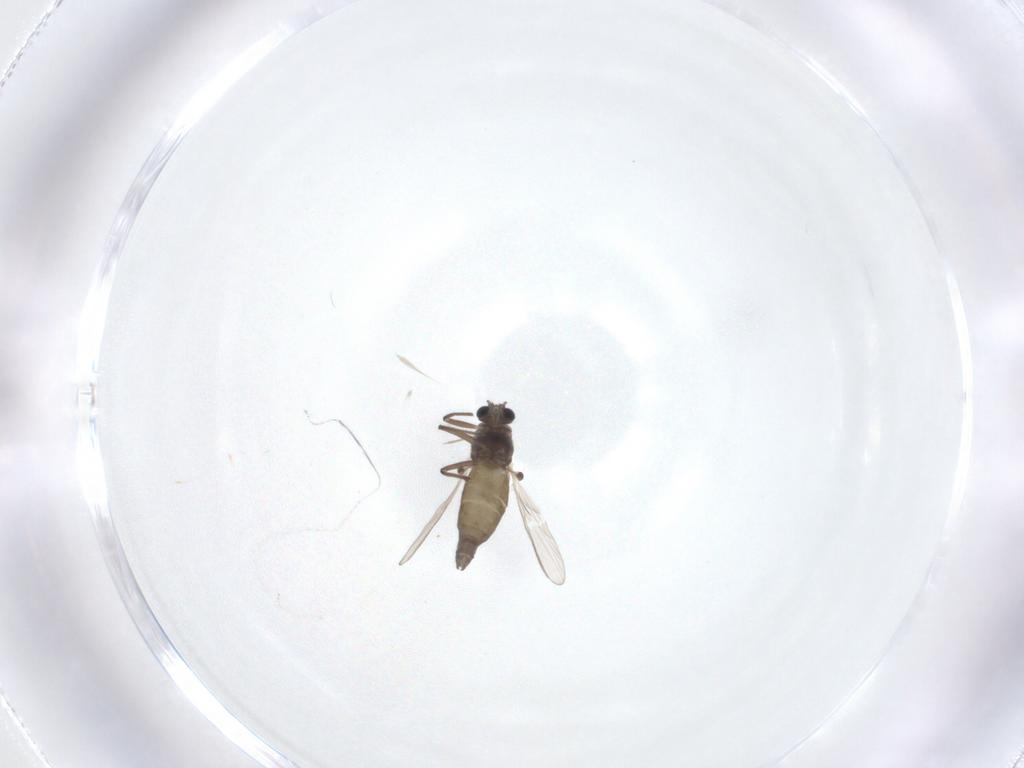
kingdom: Animalia
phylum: Arthropoda
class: Insecta
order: Diptera
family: Chironomidae
